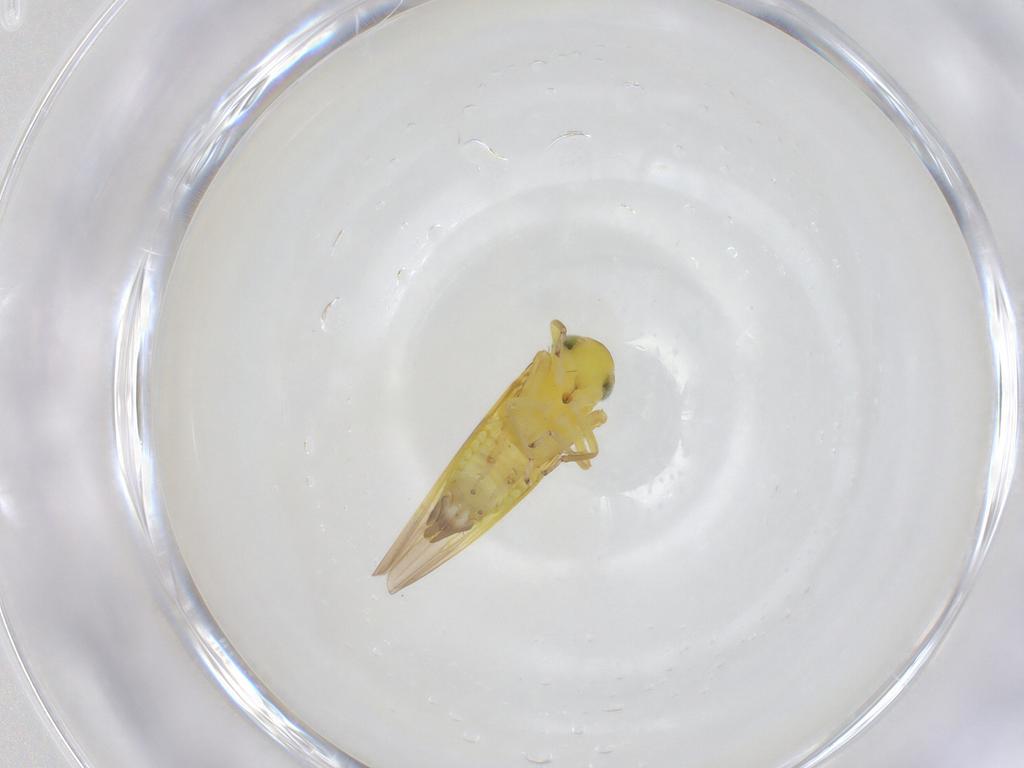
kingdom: Animalia
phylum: Arthropoda
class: Insecta
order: Hemiptera
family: Cicadellidae
